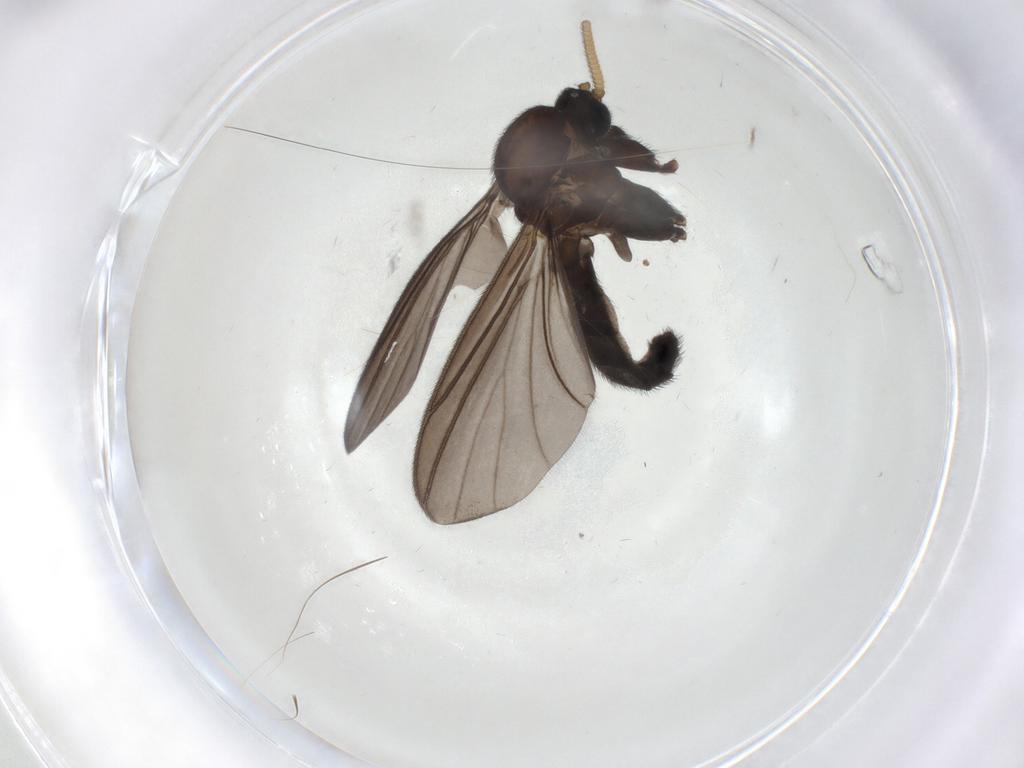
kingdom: Animalia
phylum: Arthropoda
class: Insecta
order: Diptera
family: Mycetophilidae
